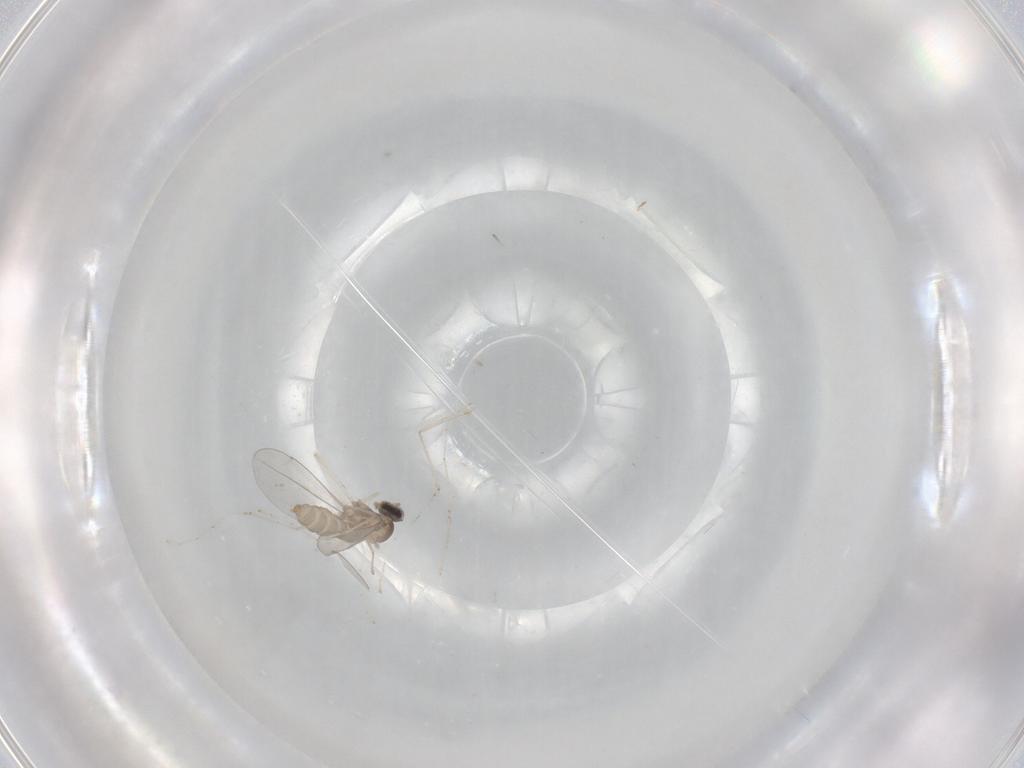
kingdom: Animalia
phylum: Arthropoda
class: Insecta
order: Diptera
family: Cecidomyiidae
